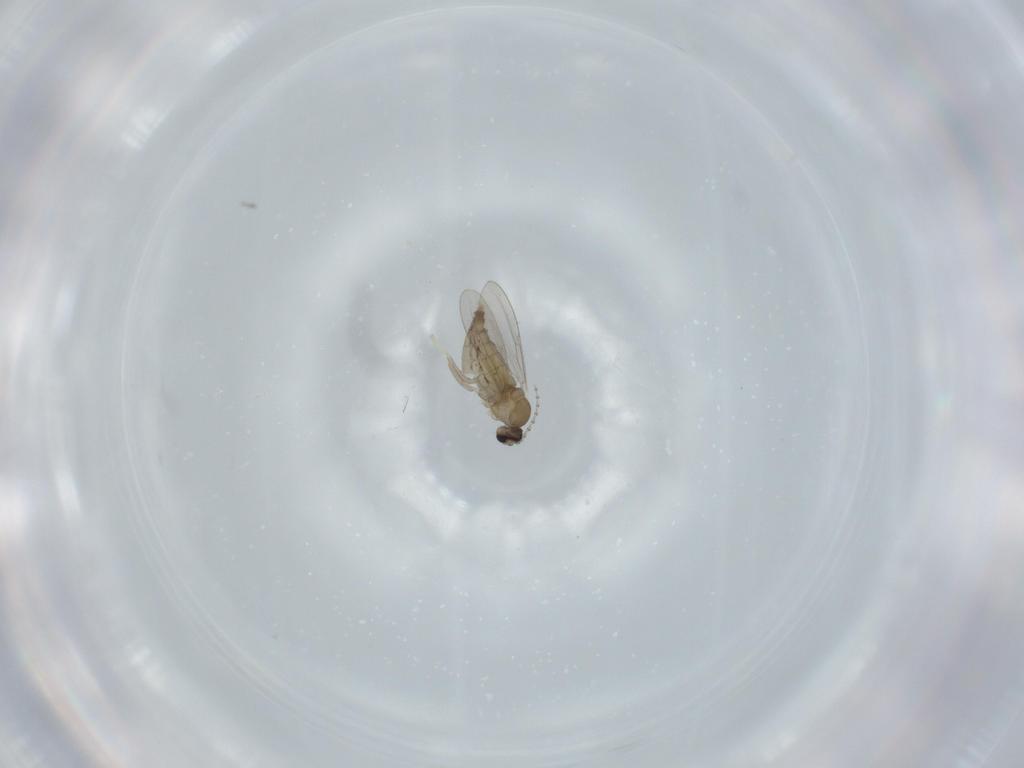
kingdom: Animalia
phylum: Arthropoda
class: Insecta
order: Diptera
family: Cecidomyiidae
